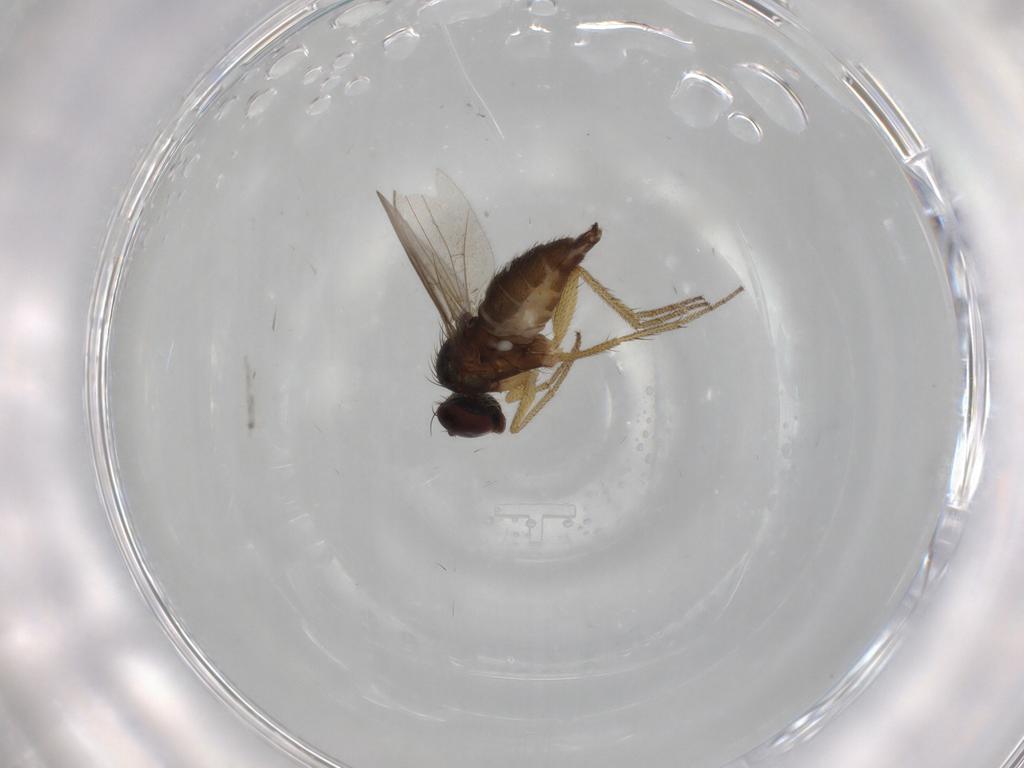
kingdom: Animalia
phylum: Arthropoda
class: Insecta
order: Diptera
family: Dolichopodidae
